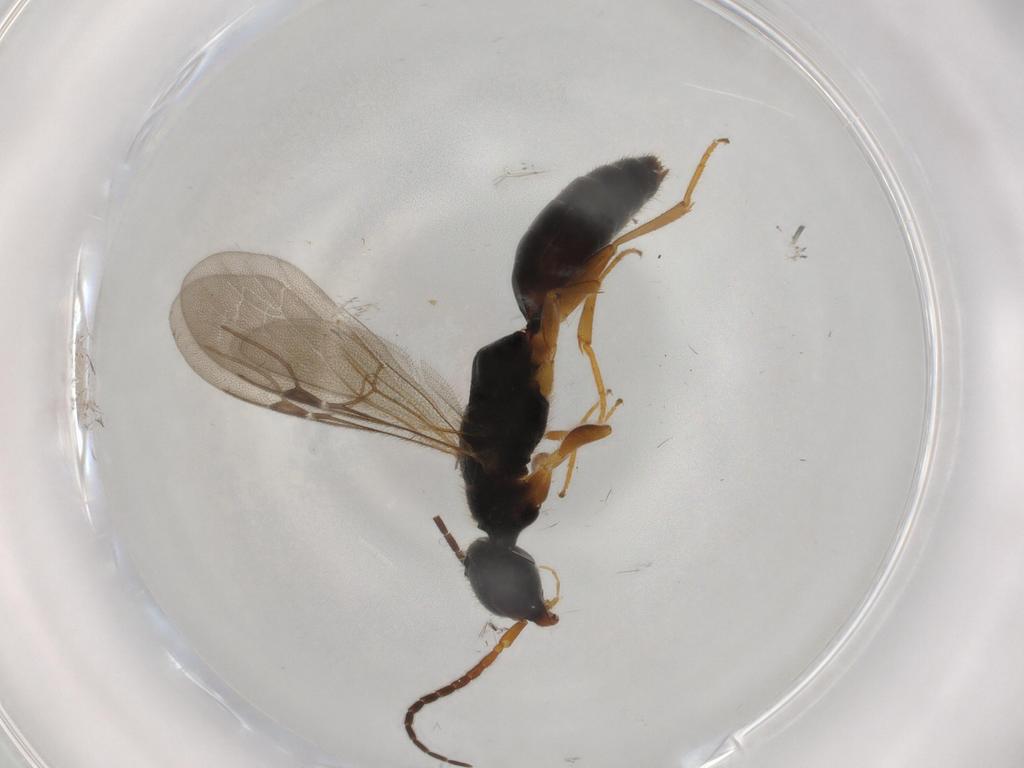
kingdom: Animalia
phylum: Arthropoda
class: Insecta
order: Hymenoptera
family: Bethylidae
